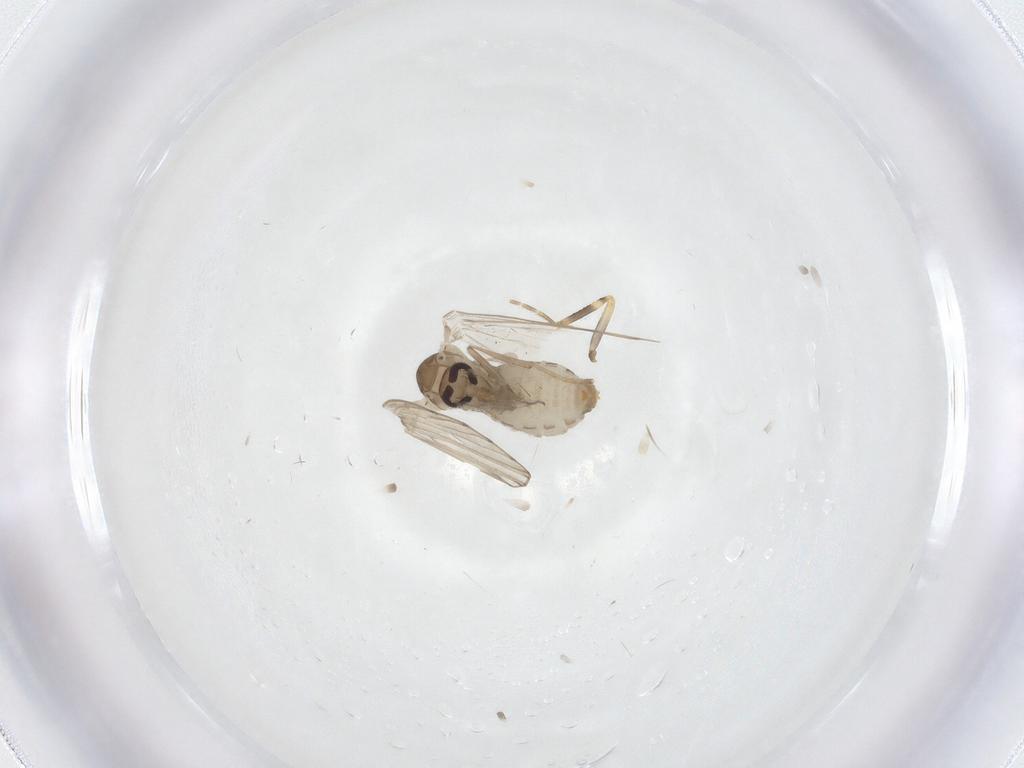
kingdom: Animalia
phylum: Arthropoda
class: Insecta
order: Diptera
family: Psychodidae
